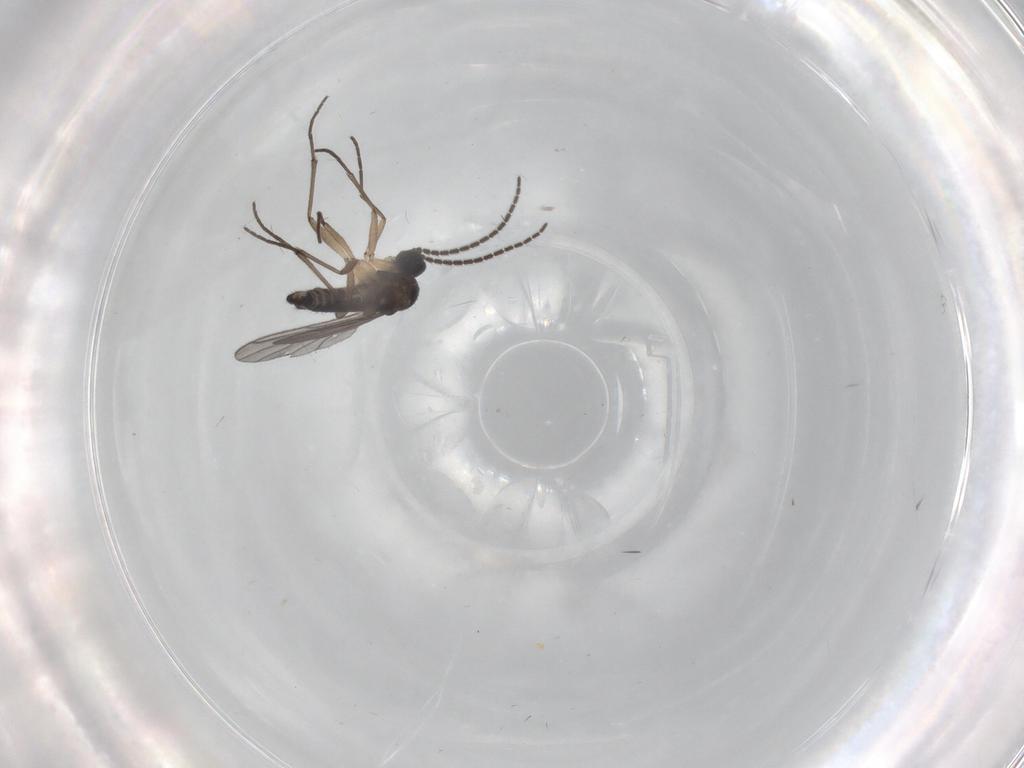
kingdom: Animalia
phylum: Arthropoda
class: Insecta
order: Diptera
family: Sciaridae
